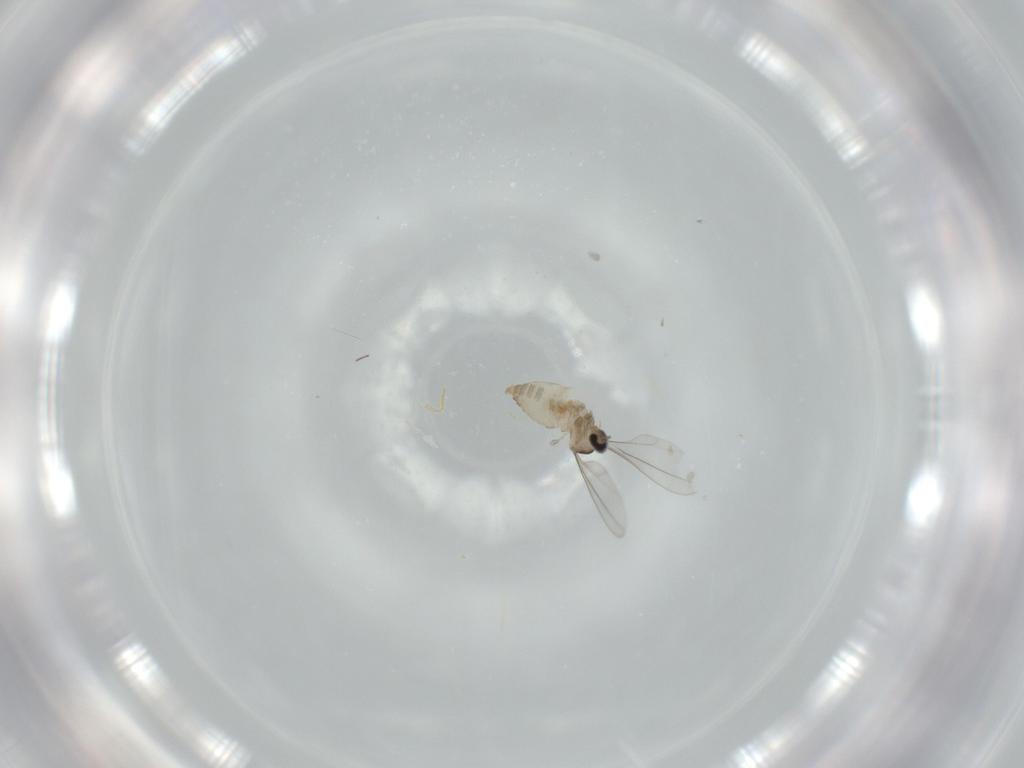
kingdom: Animalia
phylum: Arthropoda
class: Insecta
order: Diptera
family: Cecidomyiidae
